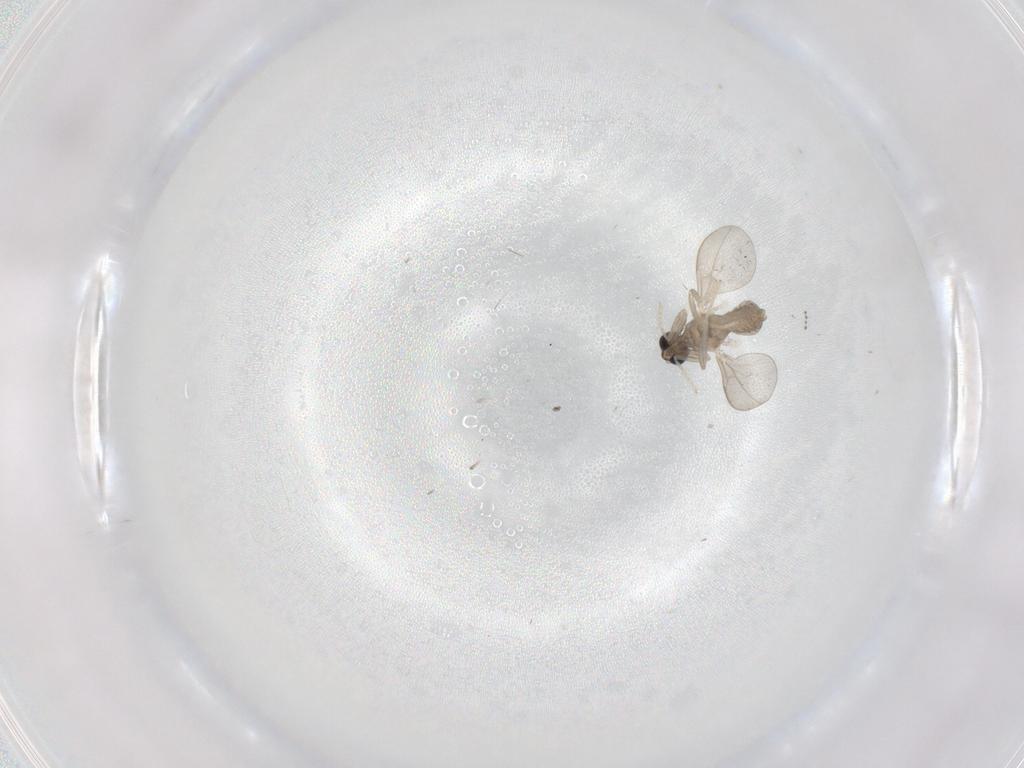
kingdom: Animalia
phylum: Arthropoda
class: Insecta
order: Diptera
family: Cecidomyiidae
